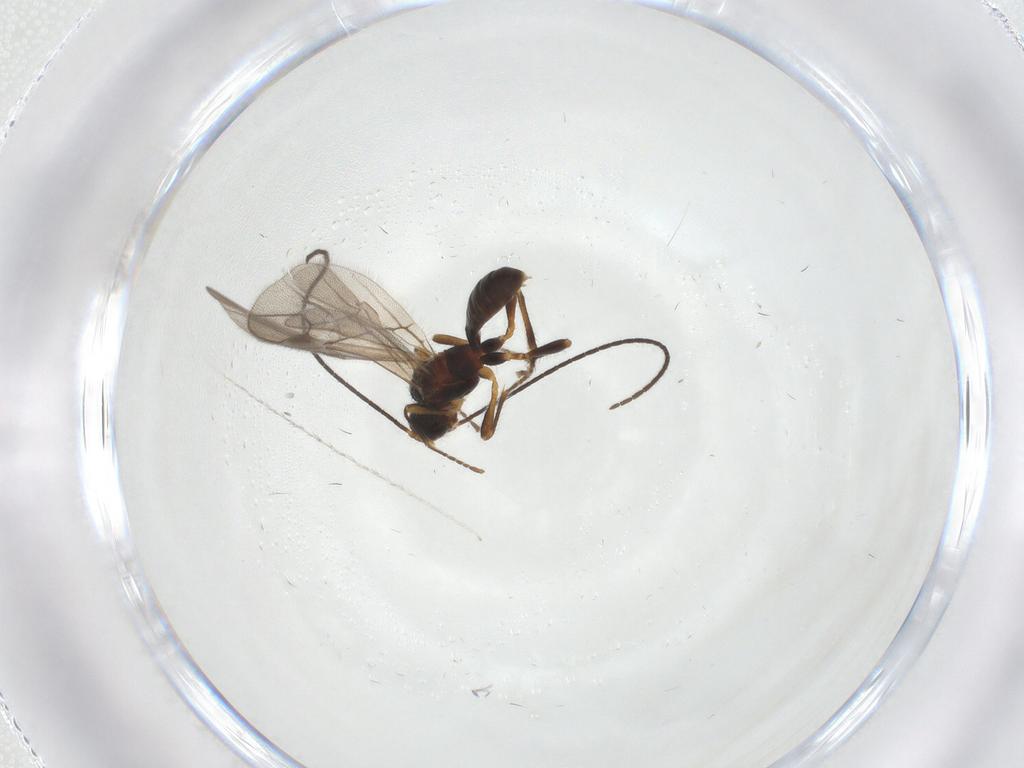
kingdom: Animalia
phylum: Arthropoda
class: Insecta
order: Hymenoptera
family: Braconidae
